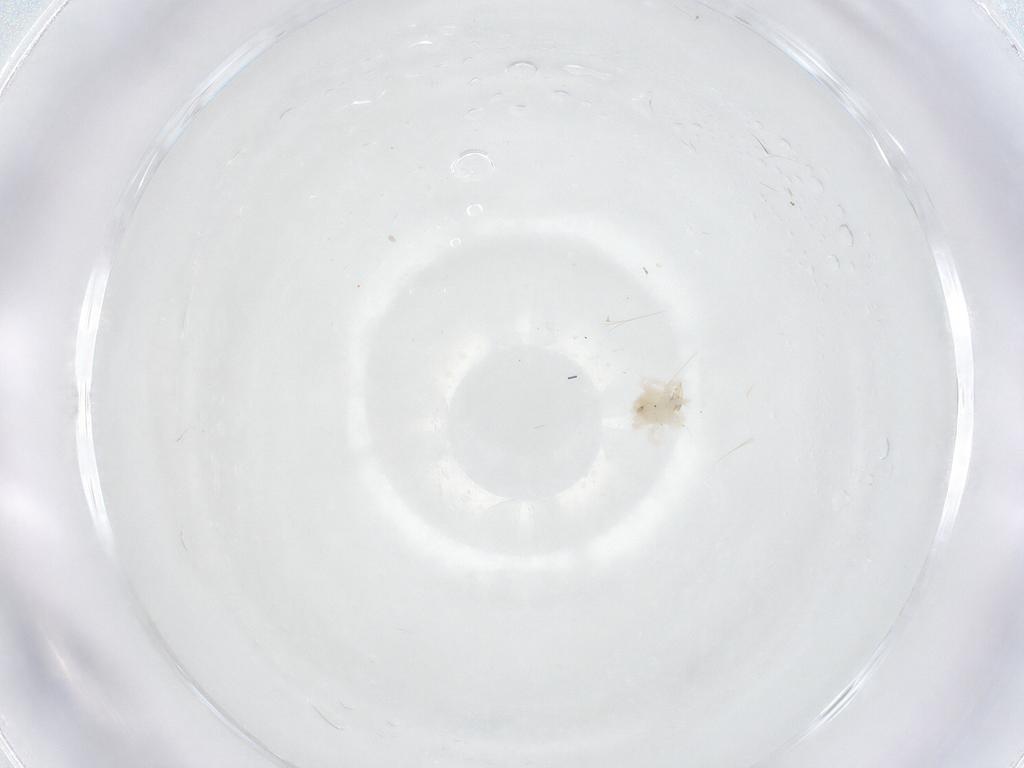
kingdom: Animalia
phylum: Arthropoda
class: Arachnida
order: Trombidiformes
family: Anystidae
